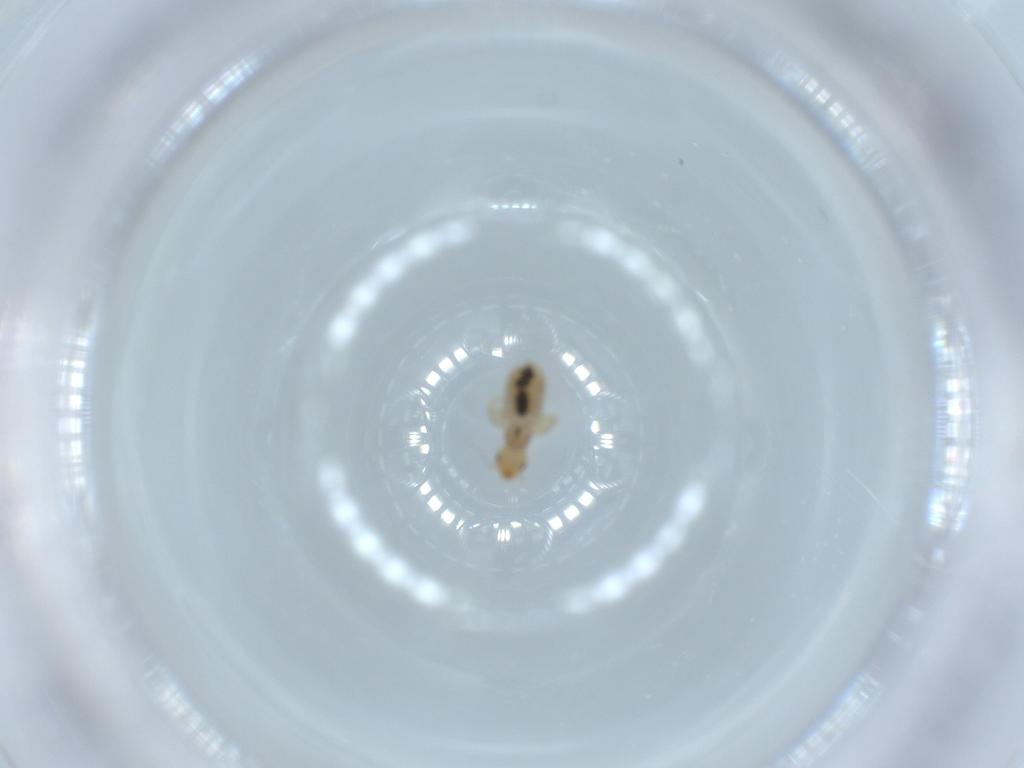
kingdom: Animalia
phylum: Arthropoda
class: Insecta
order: Psocodea
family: Liposcelididae
